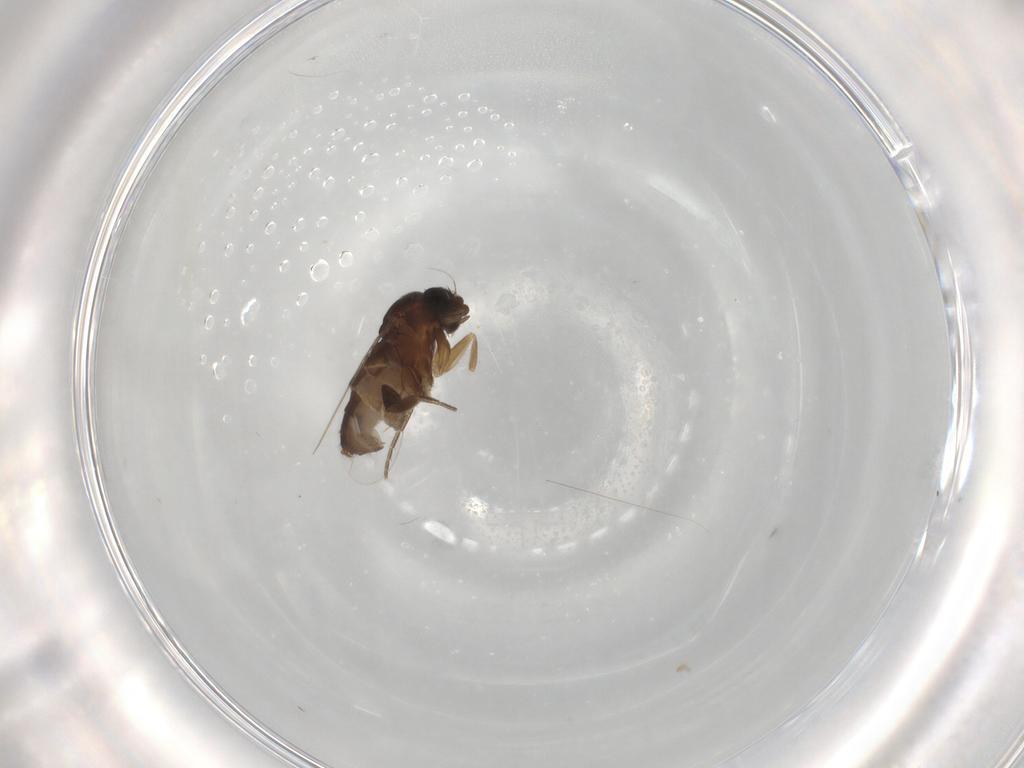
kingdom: Animalia
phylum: Arthropoda
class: Insecta
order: Diptera
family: Phoridae
